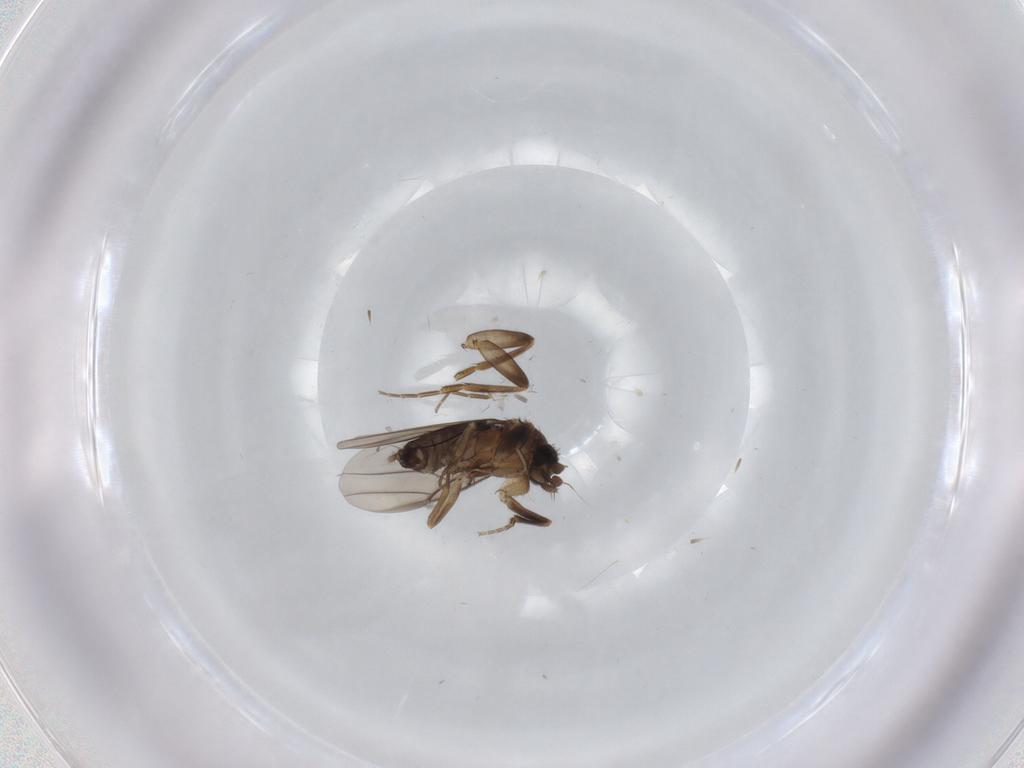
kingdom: Animalia
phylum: Arthropoda
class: Insecta
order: Diptera
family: Phoridae
